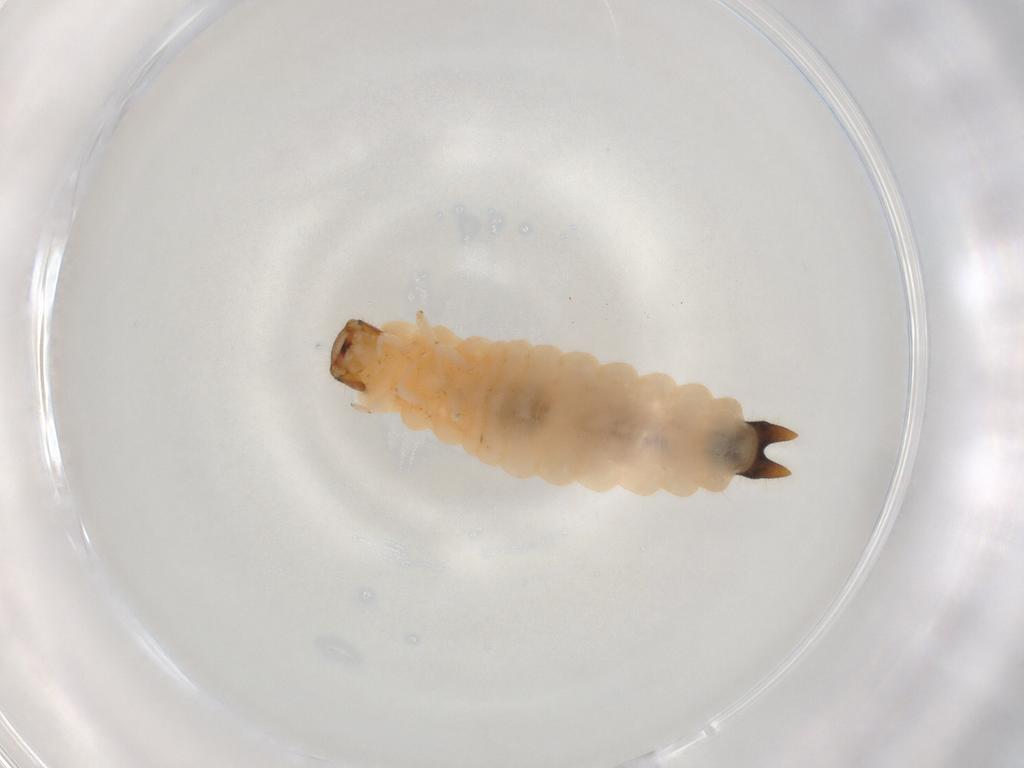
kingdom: Animalia
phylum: Arthropoda
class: Insecta
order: Coleoptera
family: Melyridae
